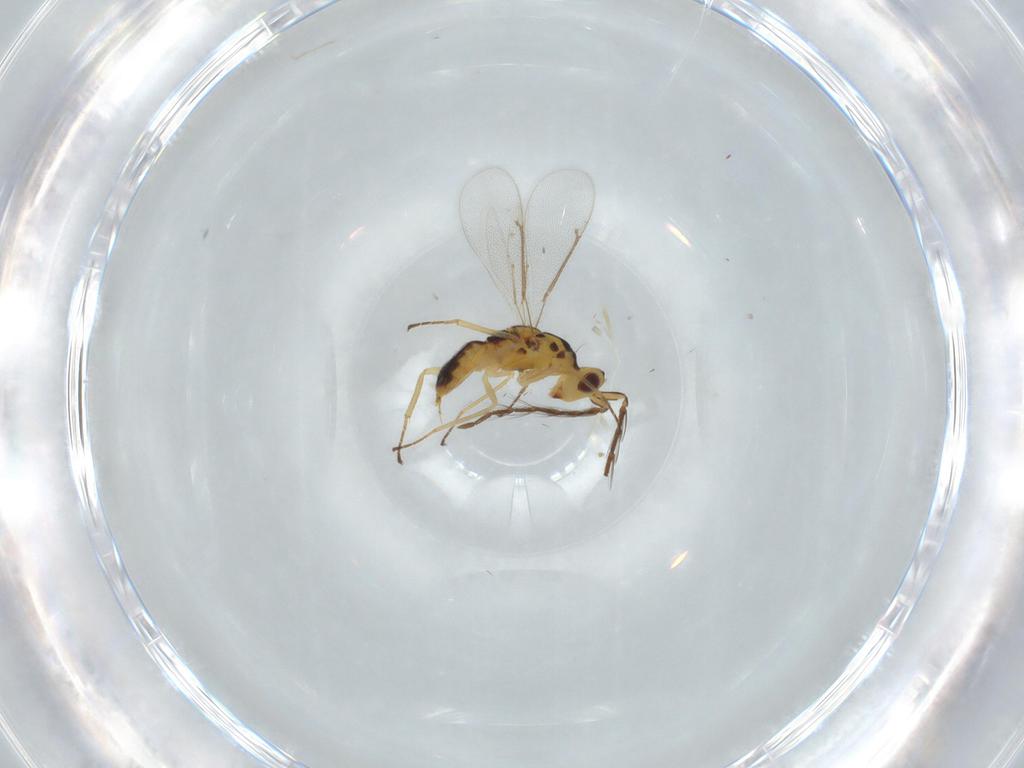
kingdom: Animalia
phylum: Arthropoda
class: Insecta
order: Hymenoptera
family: Eulophidae
